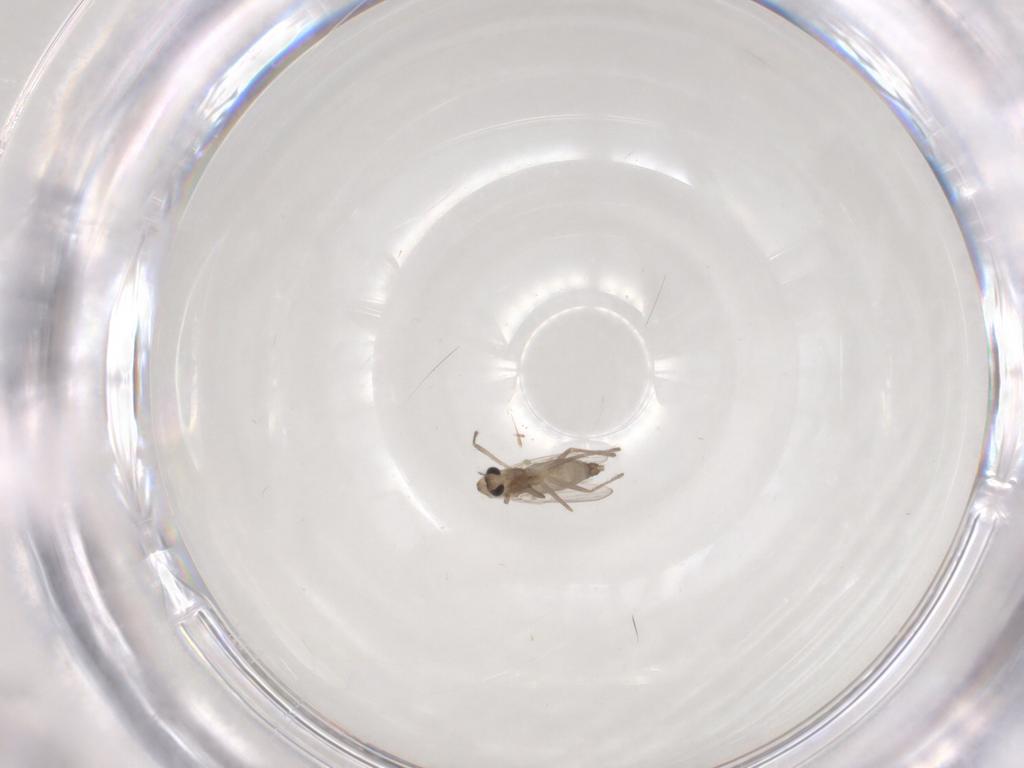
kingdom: Animalia
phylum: Arthropoda
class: Insecta
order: Diptera
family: Chironomidae
